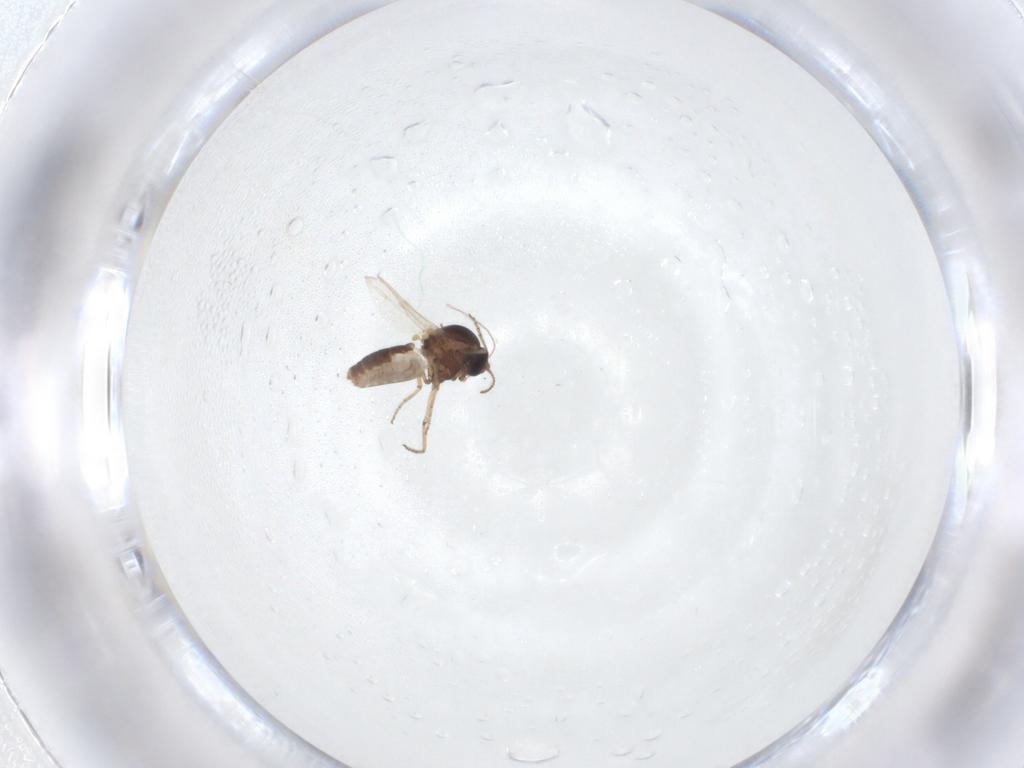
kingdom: Animalia
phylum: Arthropoda
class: Insecta
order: Diptera
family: Ceratopogonidae
